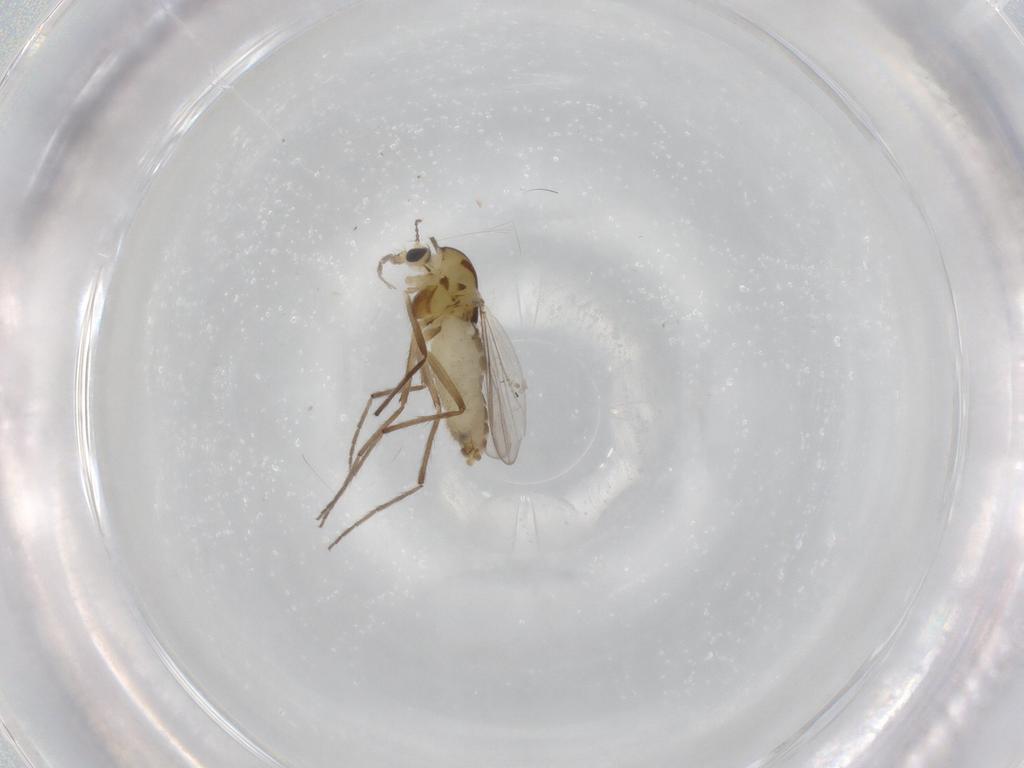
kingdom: Animalia
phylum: Arthropoda
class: Insecta
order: Diptera
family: Chironomidae
